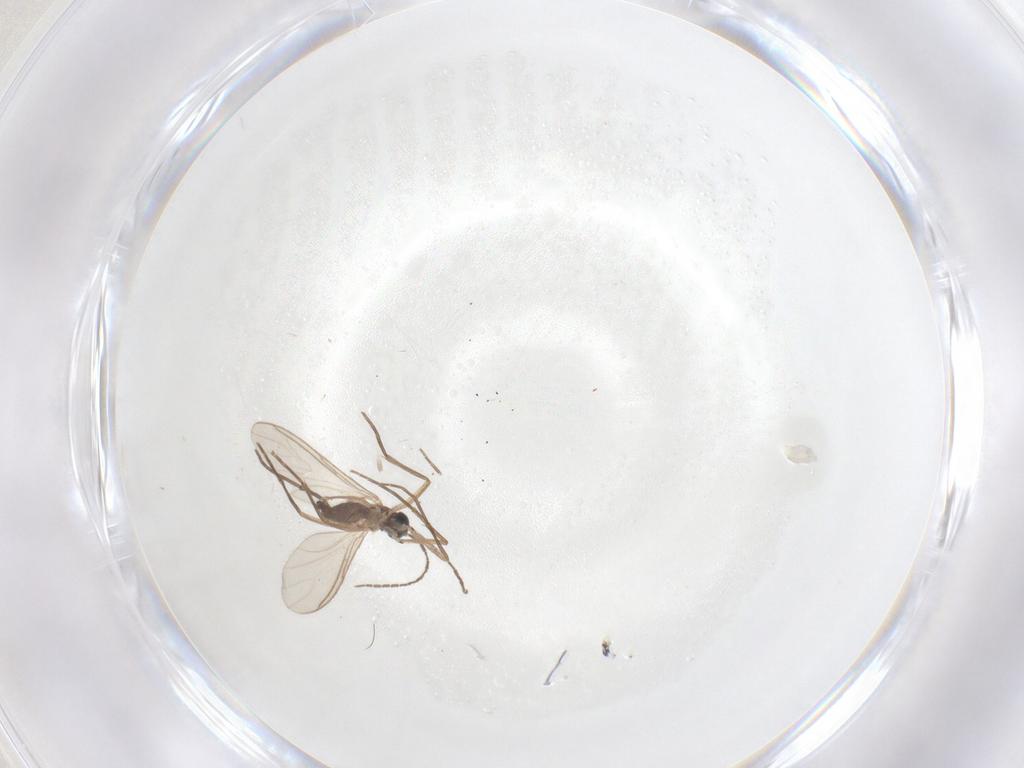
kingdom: Animalia
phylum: Arthropoda
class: Insecta
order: Diptera
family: Sciaridae
